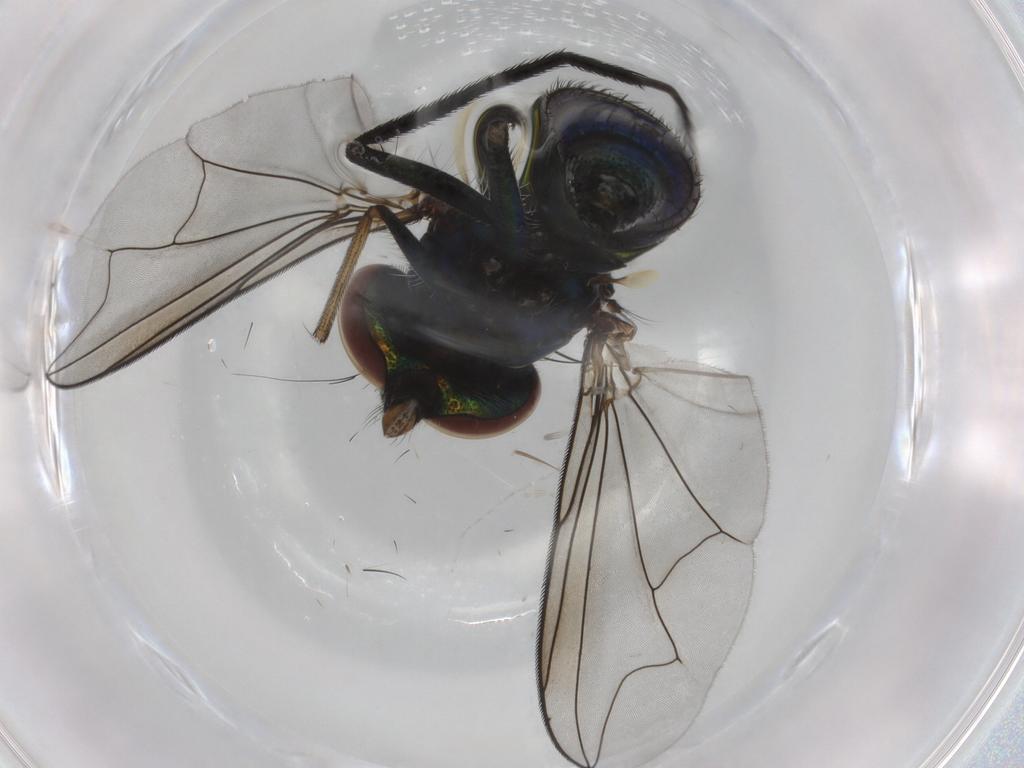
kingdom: Animalia
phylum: Arthropoda
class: Insecta
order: Diptera
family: Dolichopodidae
